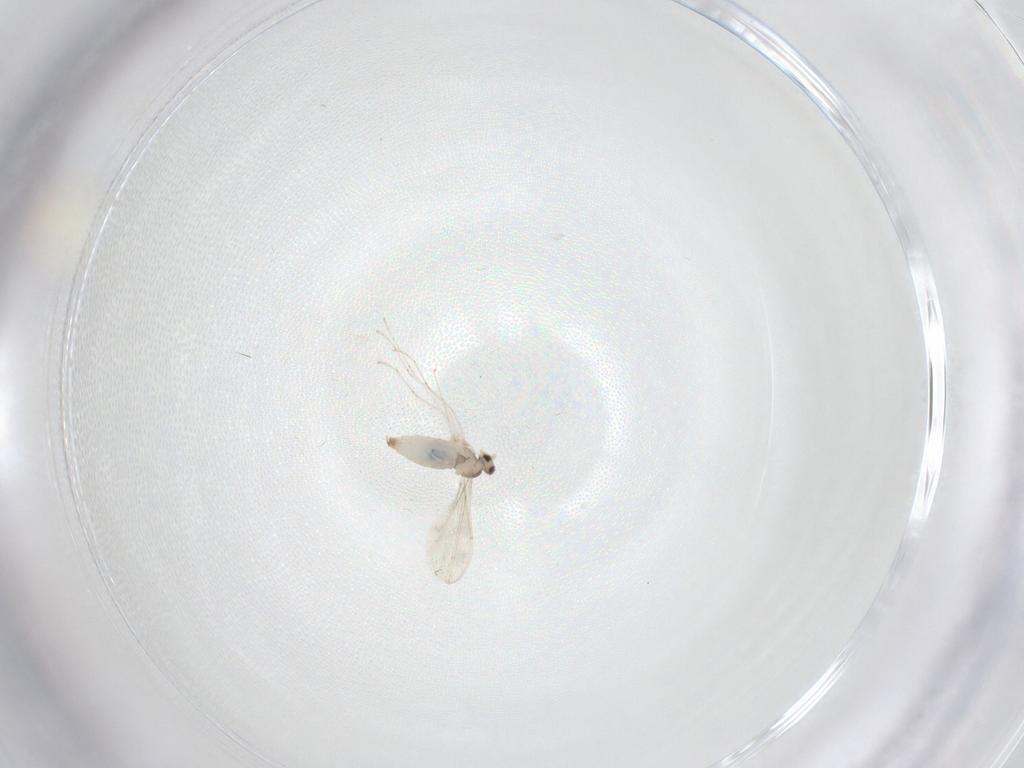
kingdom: Animalia
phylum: Arthropoda
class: Insecta
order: Diptera
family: Cecidomyiidae
